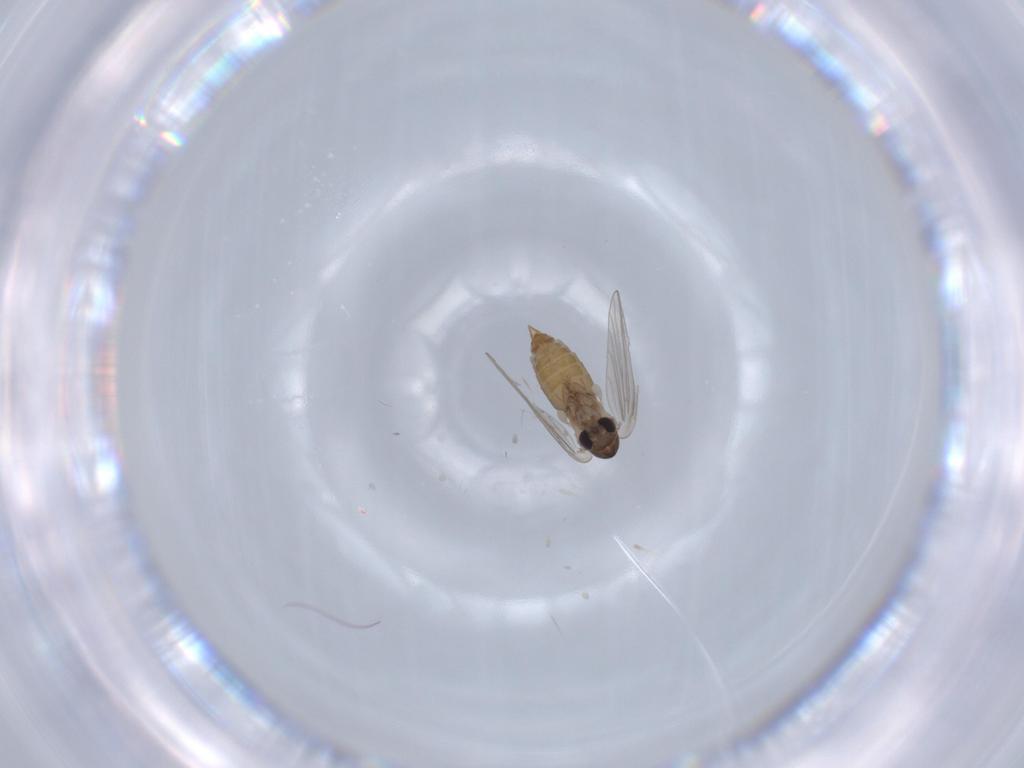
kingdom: Animalia
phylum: Arthropoda
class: Insecta
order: Diptera
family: Psychodidae
